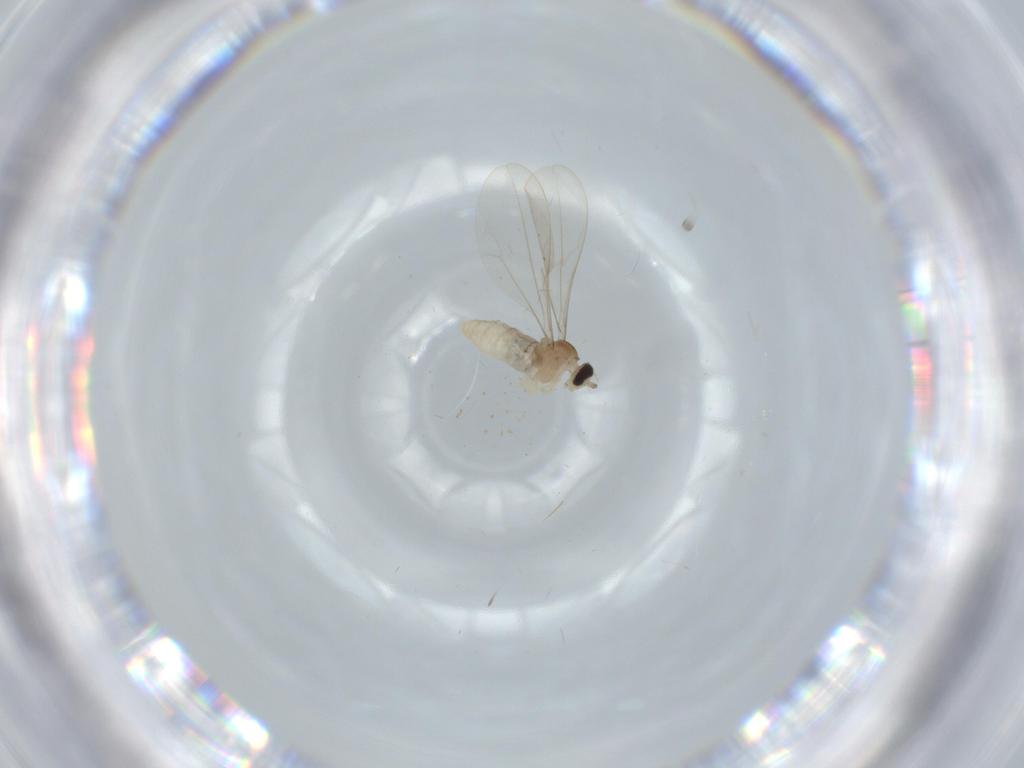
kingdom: Animalia
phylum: Arthropoda
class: Insecta
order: Diptera
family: Cecidomyiidae
